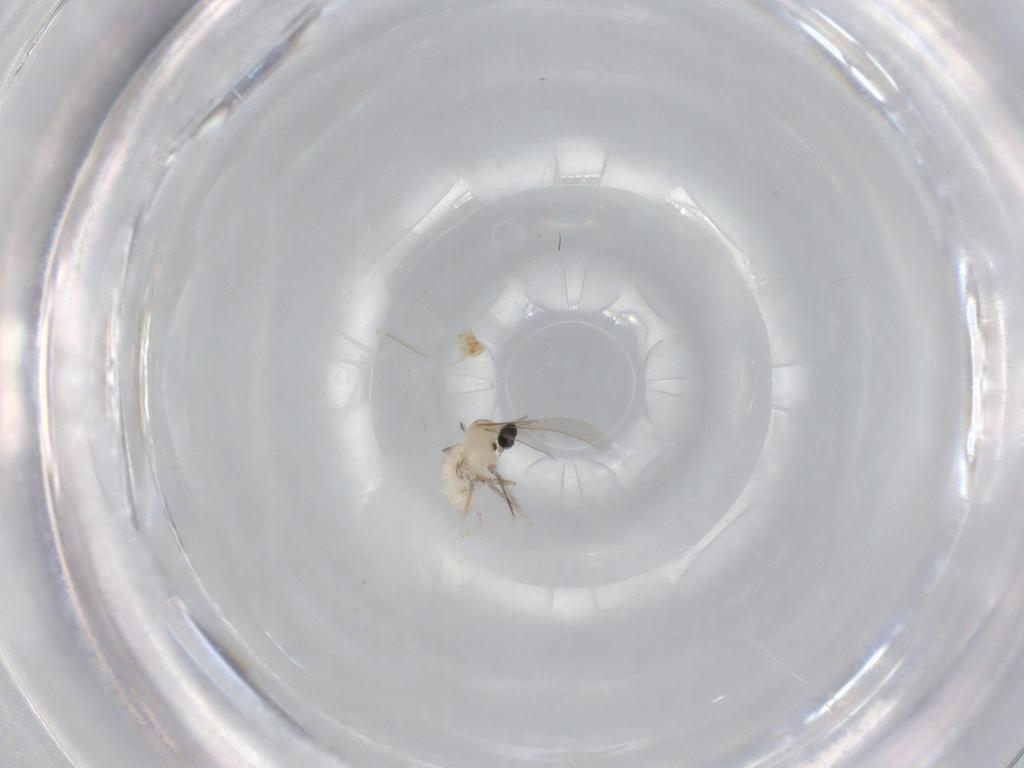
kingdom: Animalia
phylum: Arthropoda
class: Insecta
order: Diptera
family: Cecidomyiidae
